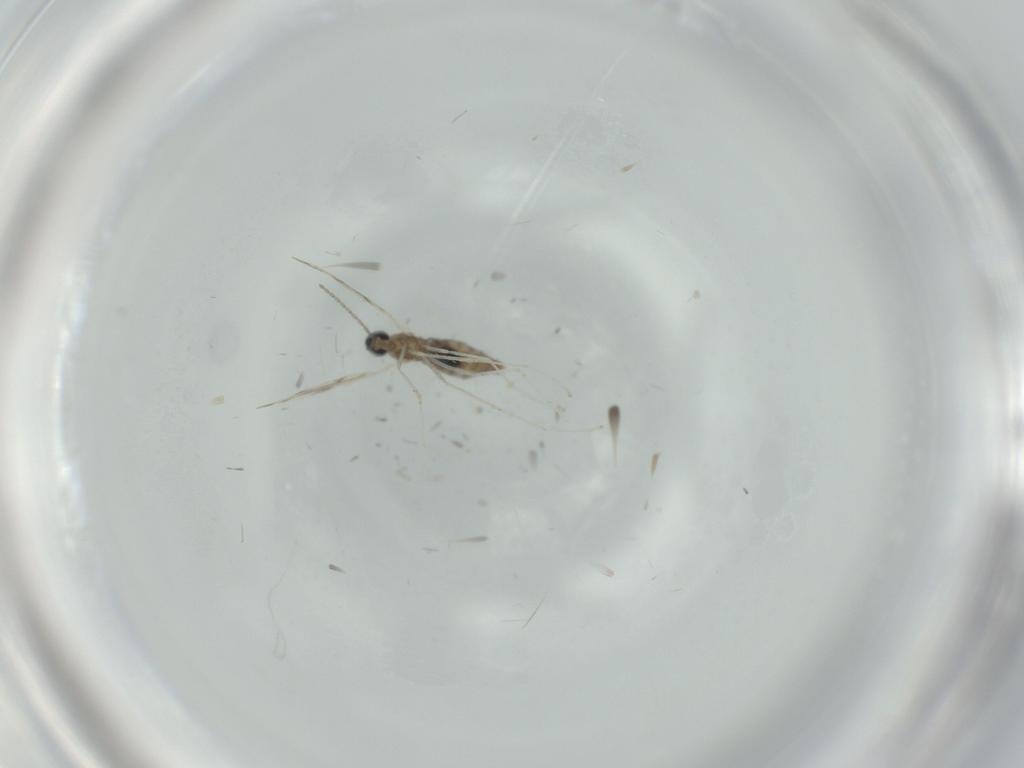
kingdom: Animalia
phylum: Arthropoda
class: Insecta
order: Diptera
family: Cecidomyiidae
